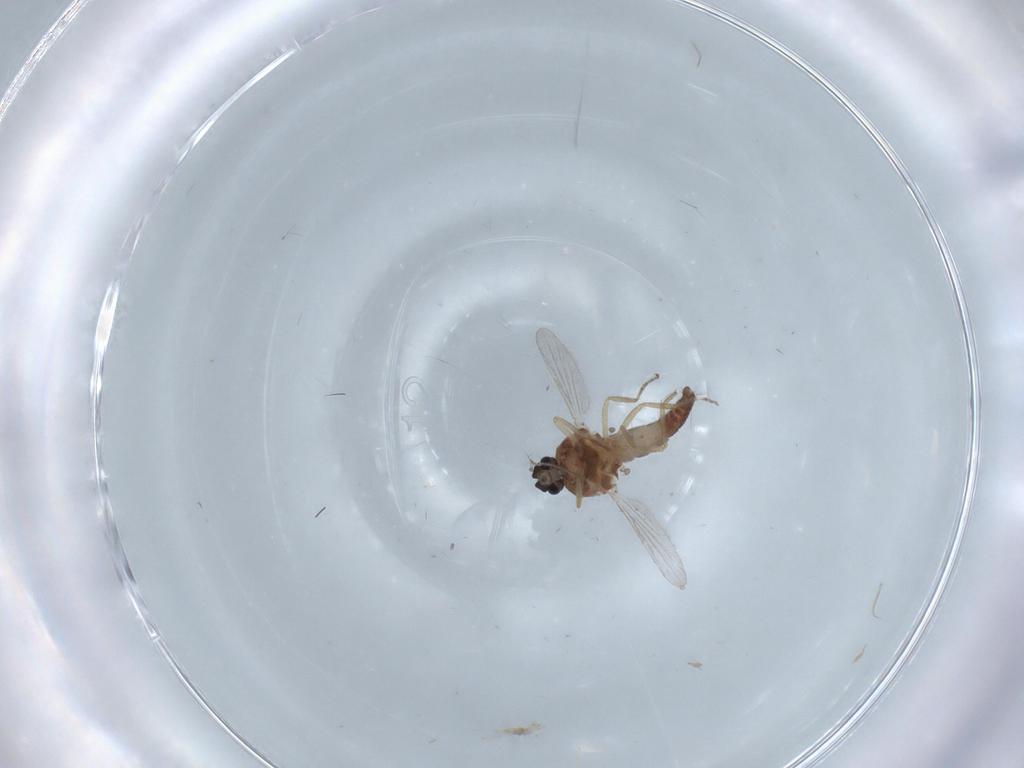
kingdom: Animalia
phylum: Arthropoda
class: Insecta
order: Diptera
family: Ceratopogonidae
